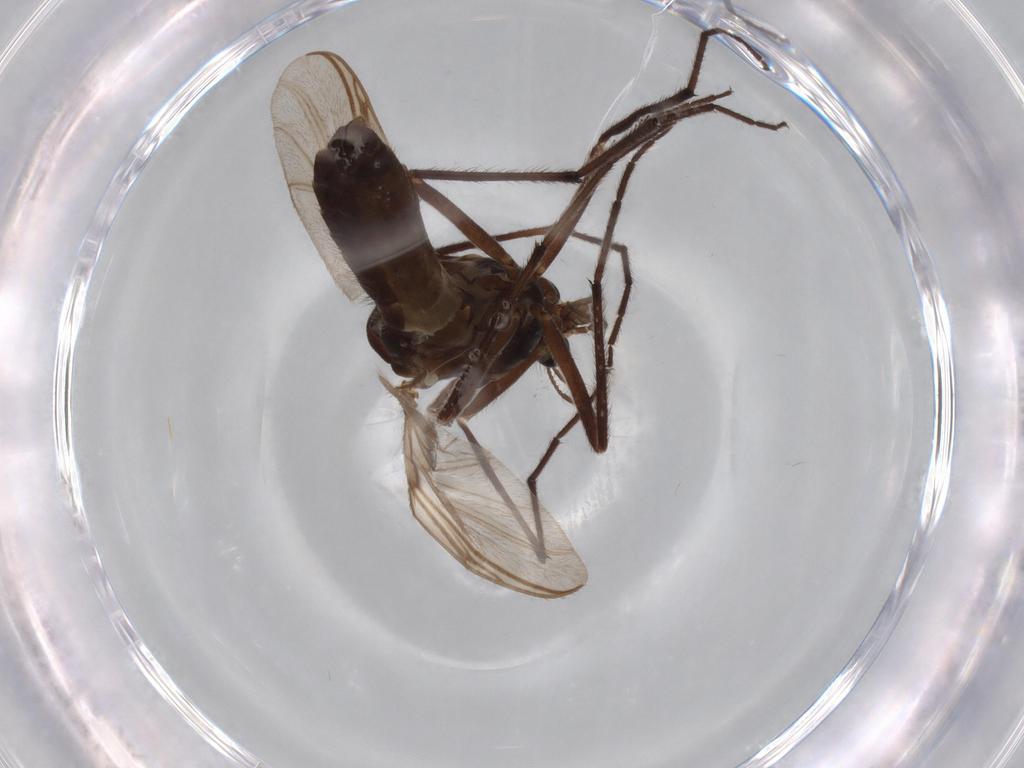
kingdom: Animalia
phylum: Arthropoda
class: Insecta
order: Diptera
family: Chironomidae
